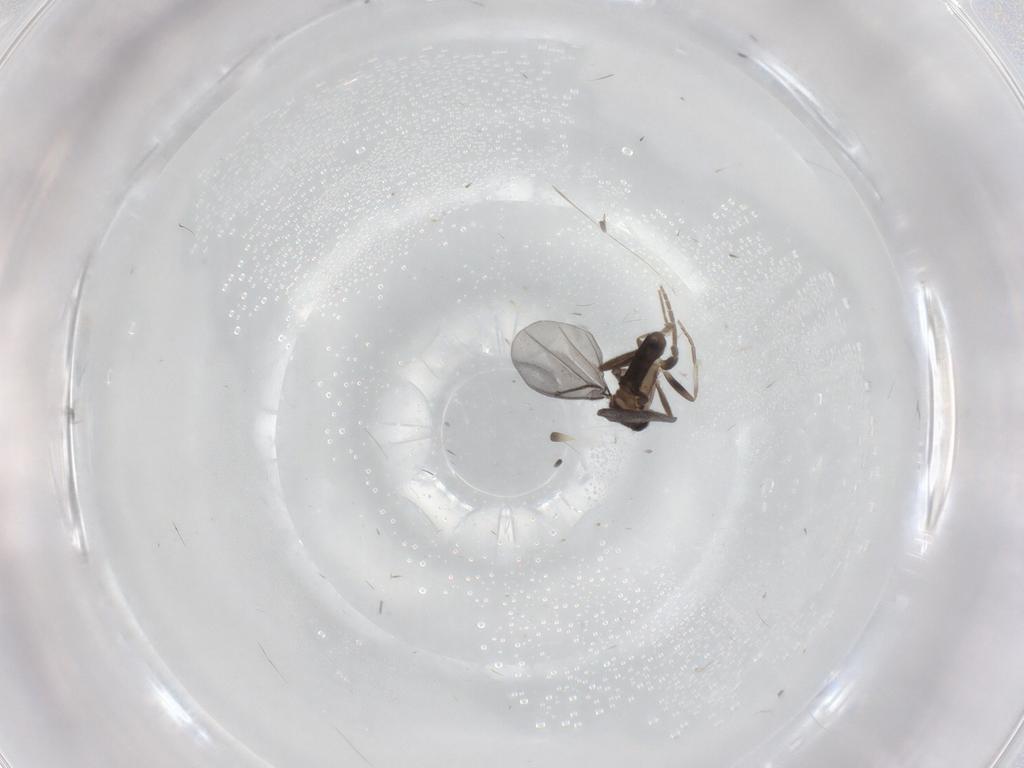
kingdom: Animalia
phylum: Arthropoda
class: Insecta
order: Diptera
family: Phoridae
